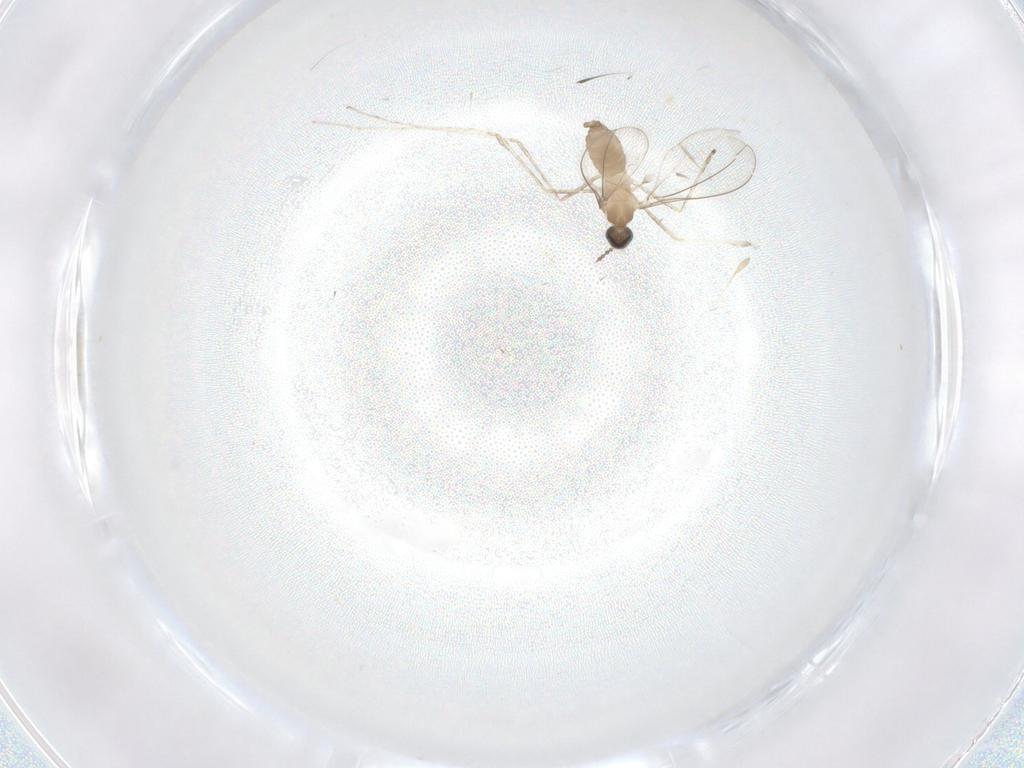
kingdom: Animalia
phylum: Arthropoda
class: Insecta
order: Diptera
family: Cecidomyiidae
